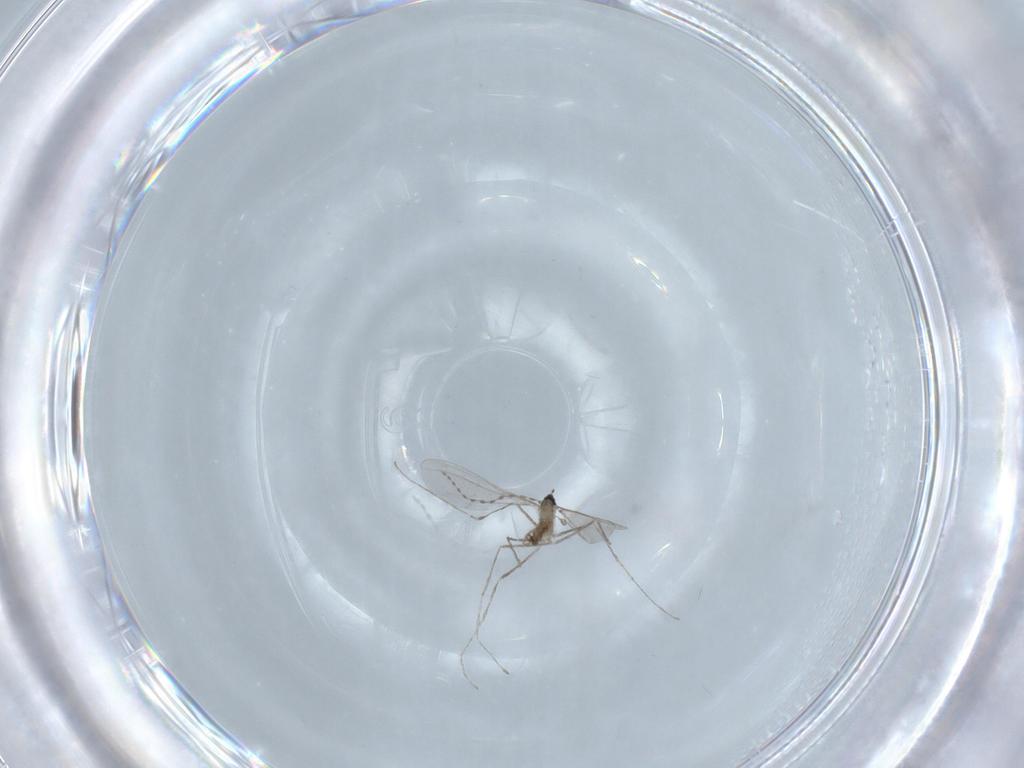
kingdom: Animalia
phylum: Arthropoda
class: Insecta
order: Diptera
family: Cecidomyiidae
